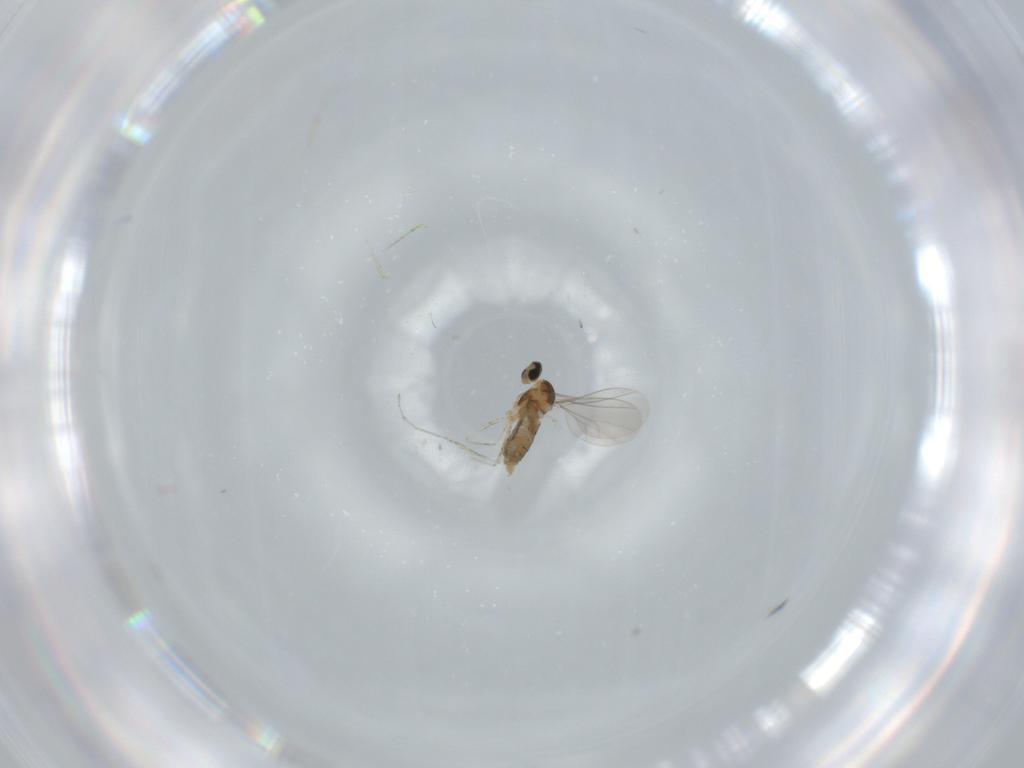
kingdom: Animalia
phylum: Arthropoda
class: Insecta
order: Diptera
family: Cecidomyiidae
